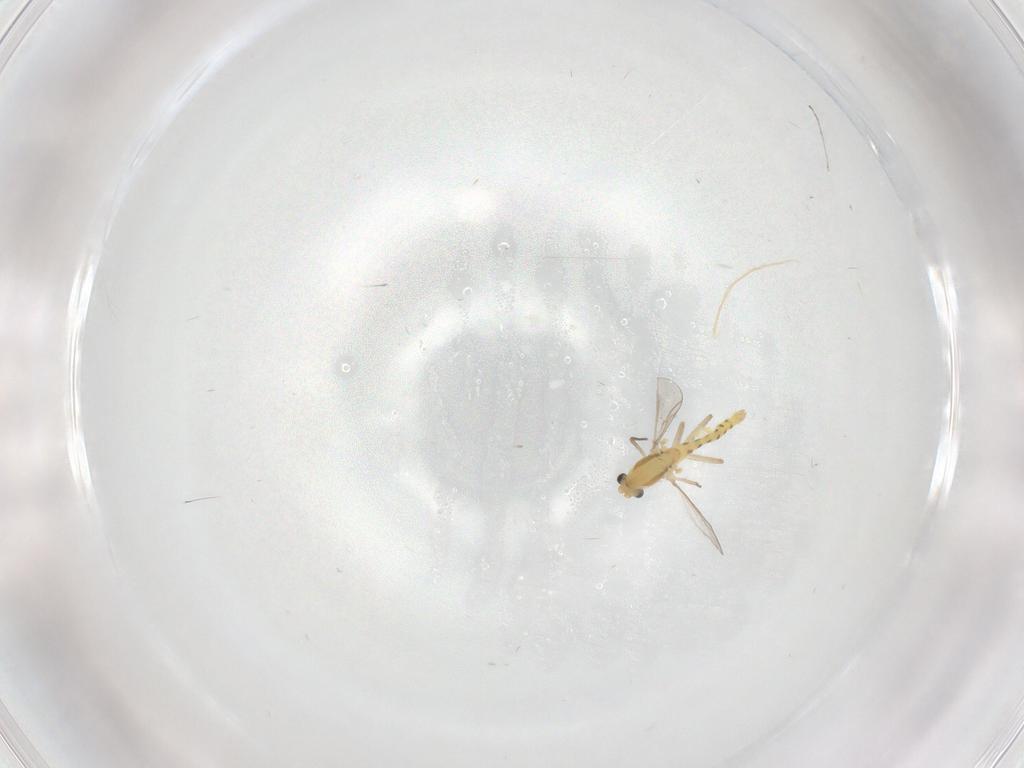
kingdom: Animalia
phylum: Arthropoda
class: Insecta
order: Diptera
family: Chironomidae
